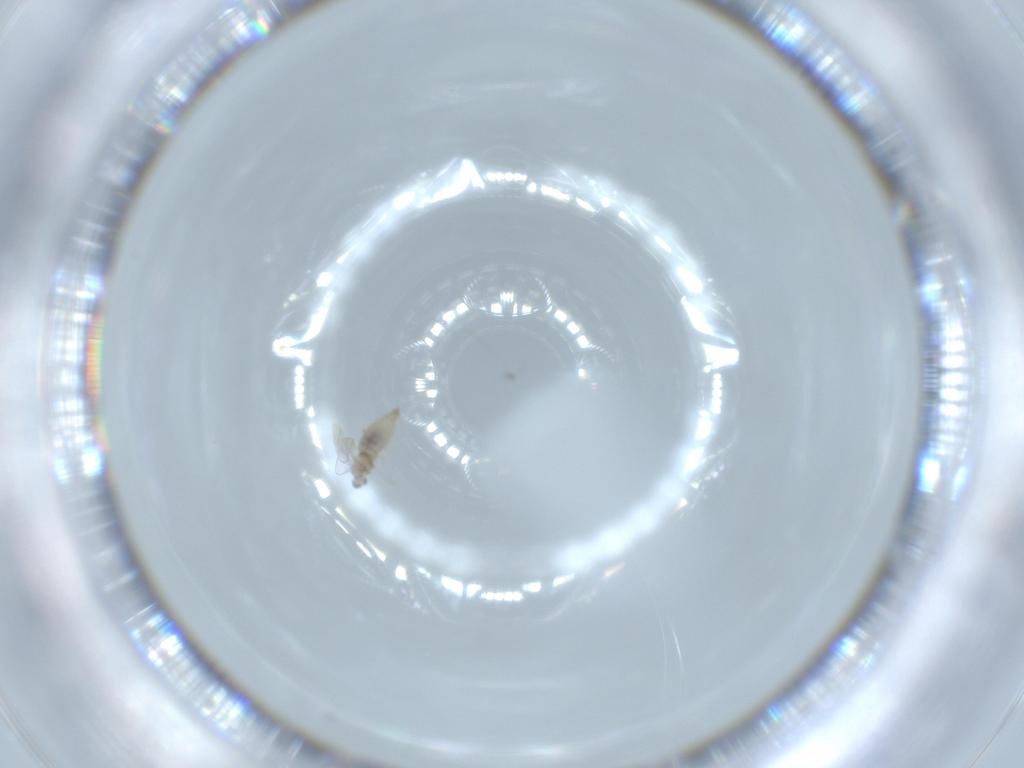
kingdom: Animalia
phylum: Arthropoda
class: Insecta
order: Diptera
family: Cecidomyiidae
